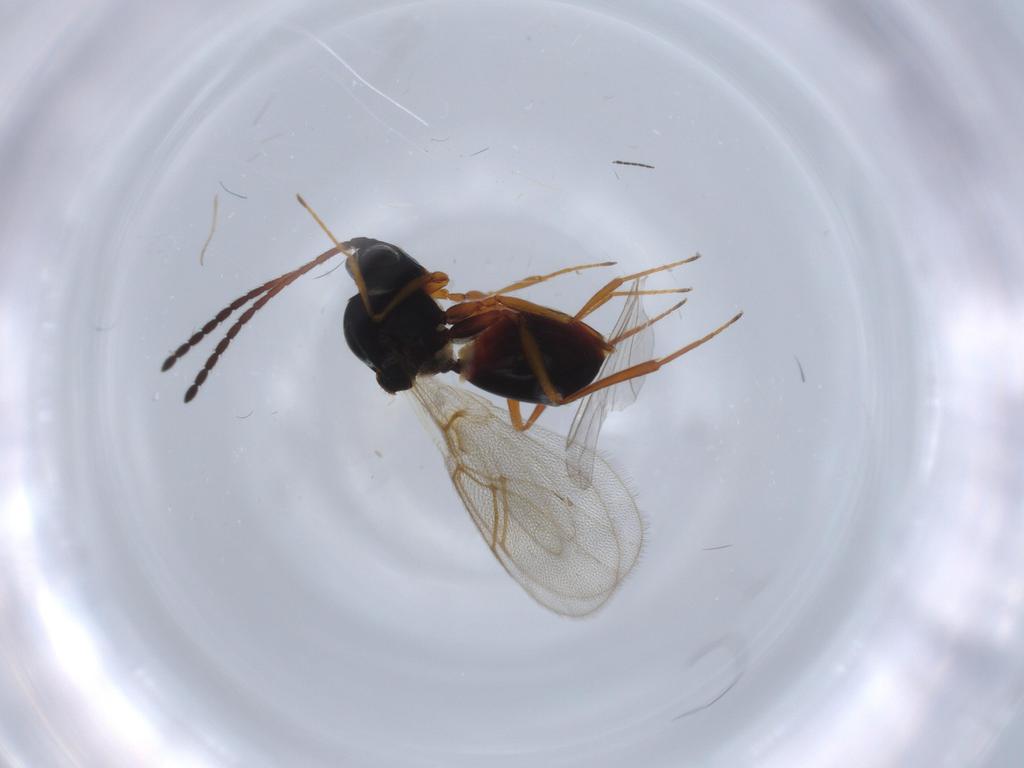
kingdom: Animalia
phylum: Arthropoda
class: Insecta
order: Hymenoptera
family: Figitidae
